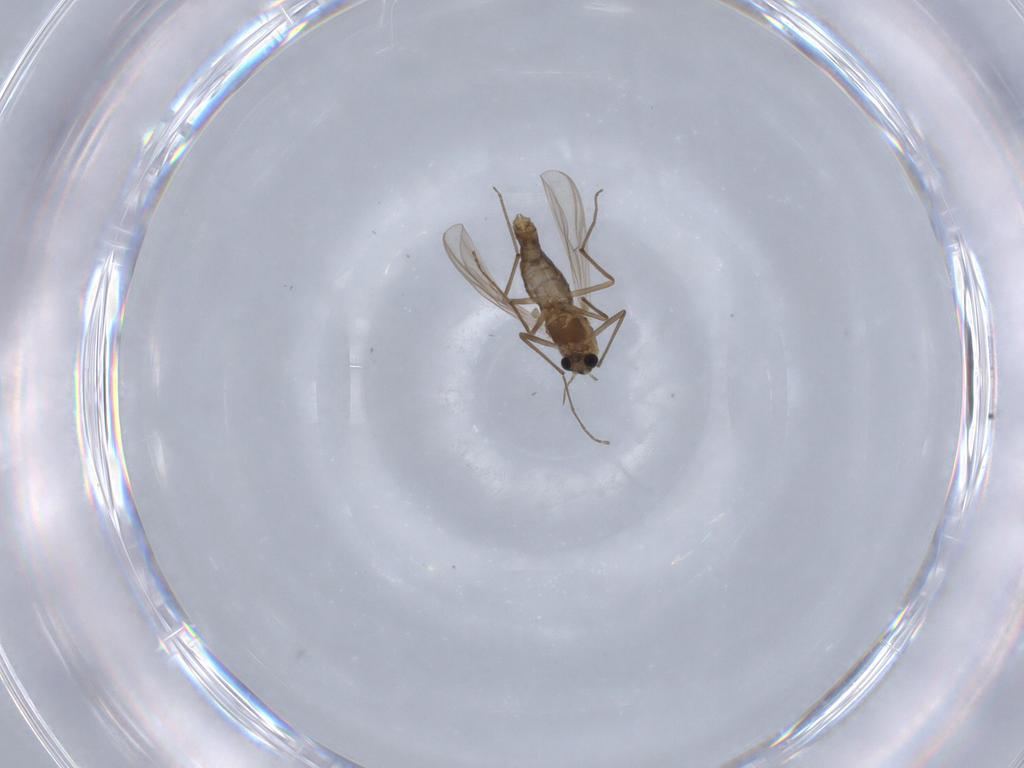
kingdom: Animalia
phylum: Arthropoda
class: Insecta
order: Diptera
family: Chironomidae
